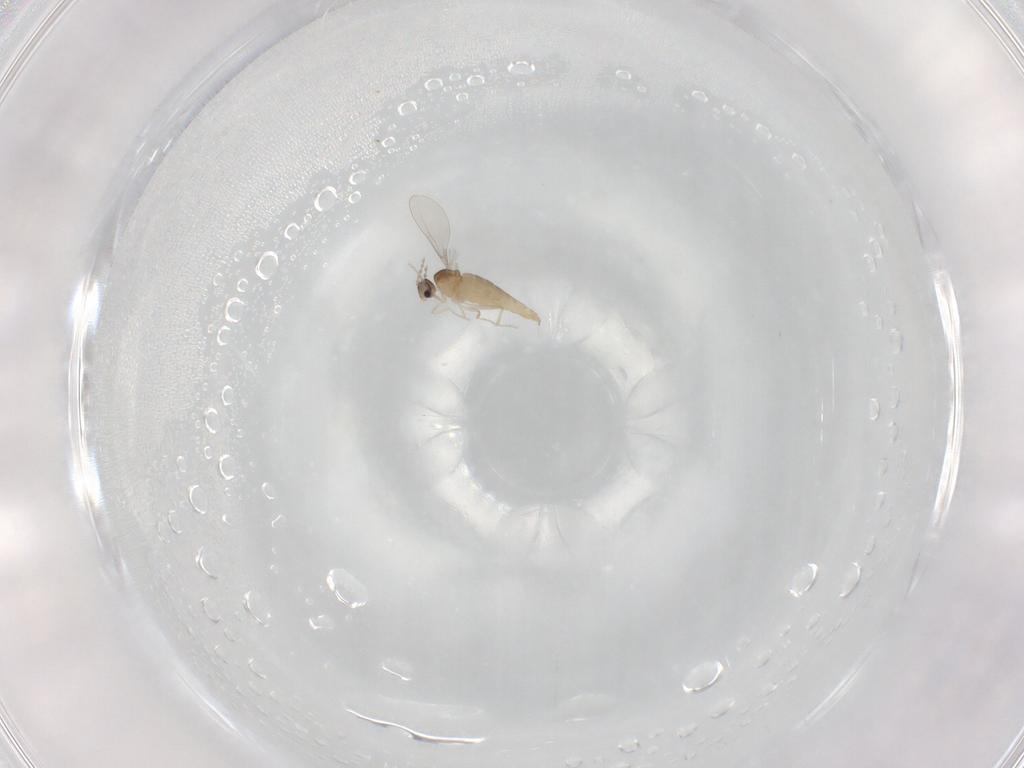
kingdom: Animalia
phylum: Arthropoda
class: Insecta
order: Diptera
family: Cecidomyiidae
